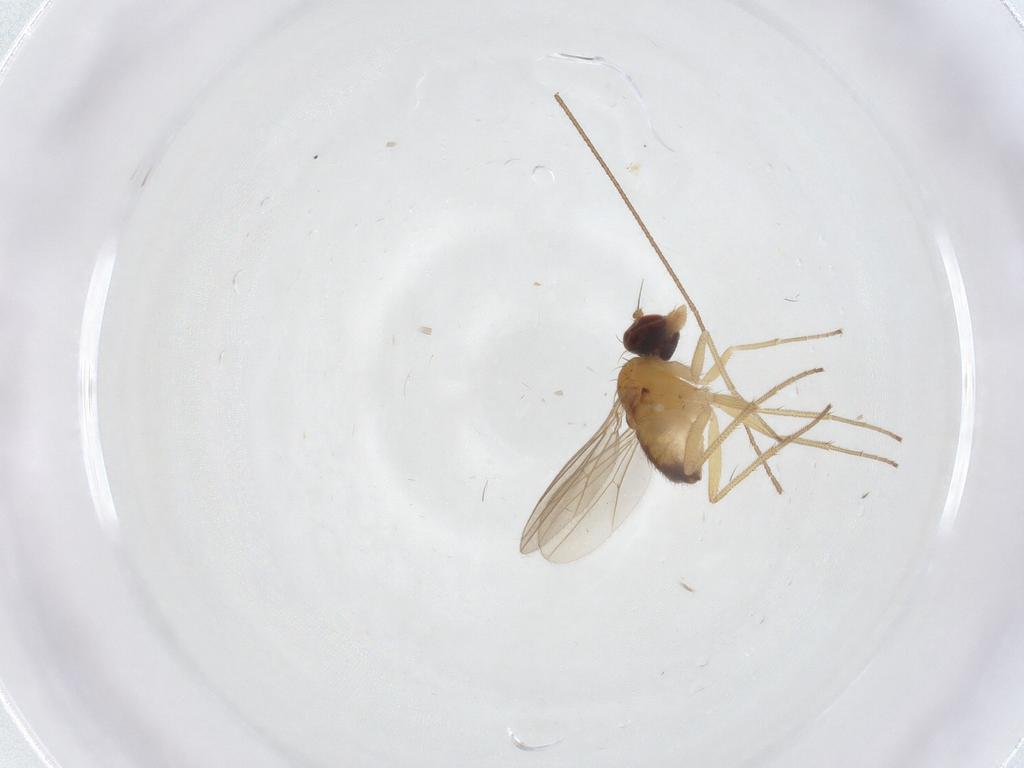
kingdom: Animalia
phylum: Arthropoda
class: Insecta
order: Diptera
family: Dolichopodidae
